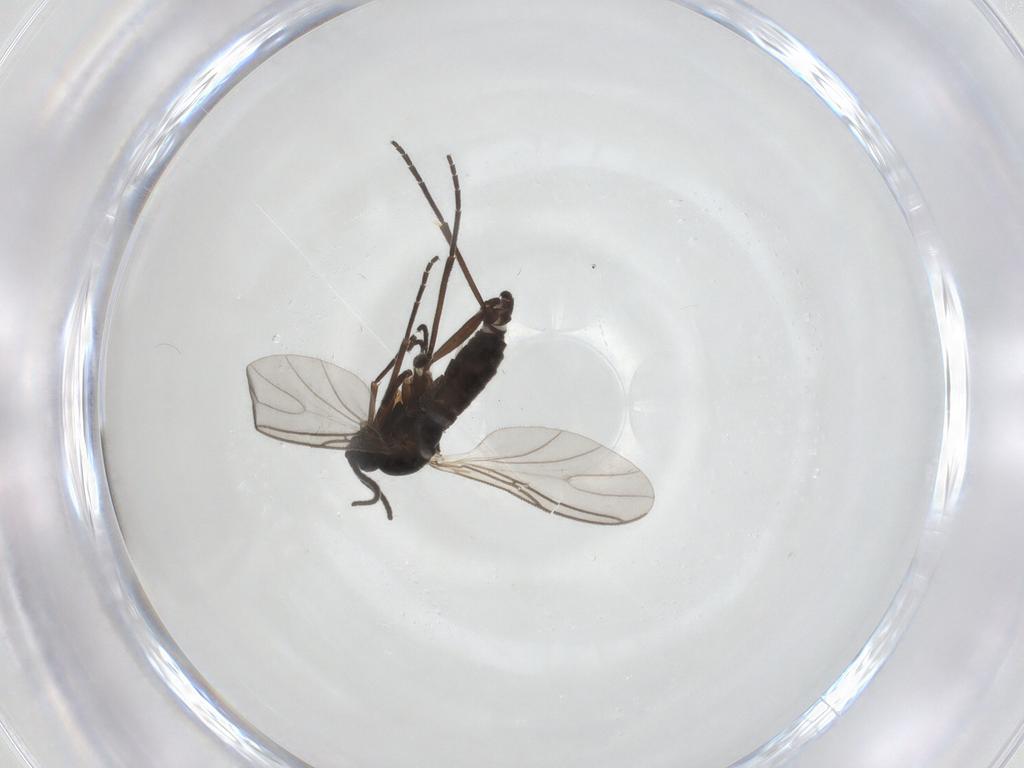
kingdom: Animalia
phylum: Arthropoda
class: Insecta
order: Diptera
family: Sciaridae
